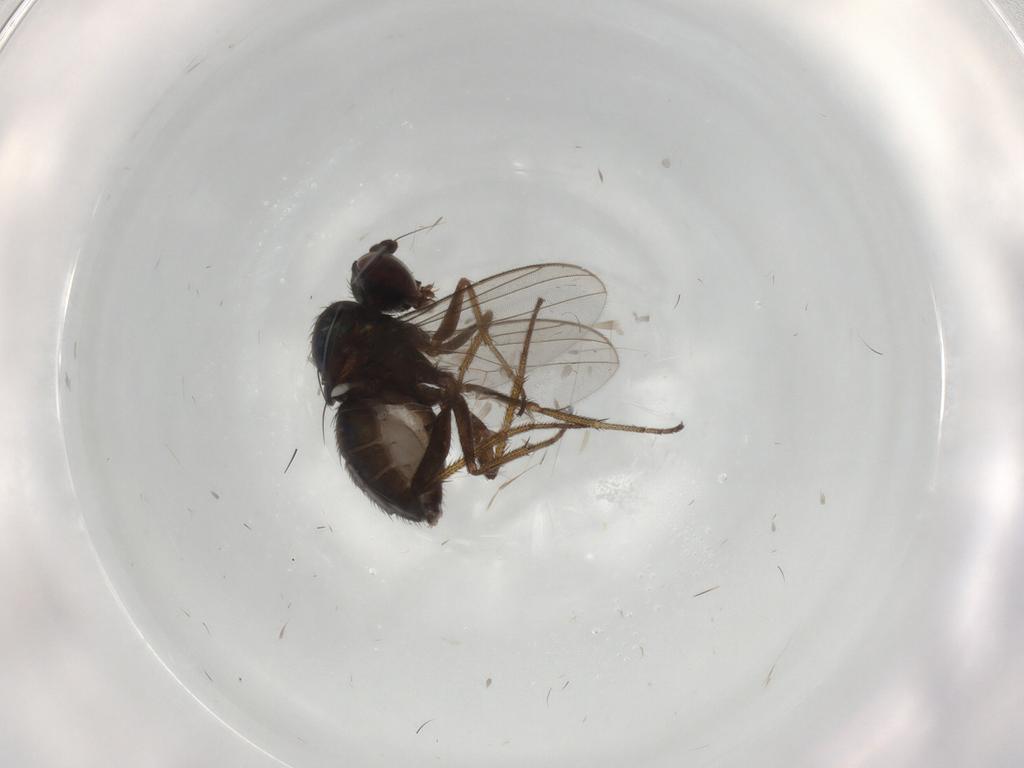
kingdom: Animalia
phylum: Arthropoda
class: Insecta
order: Diptera
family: Dolichopodidae
